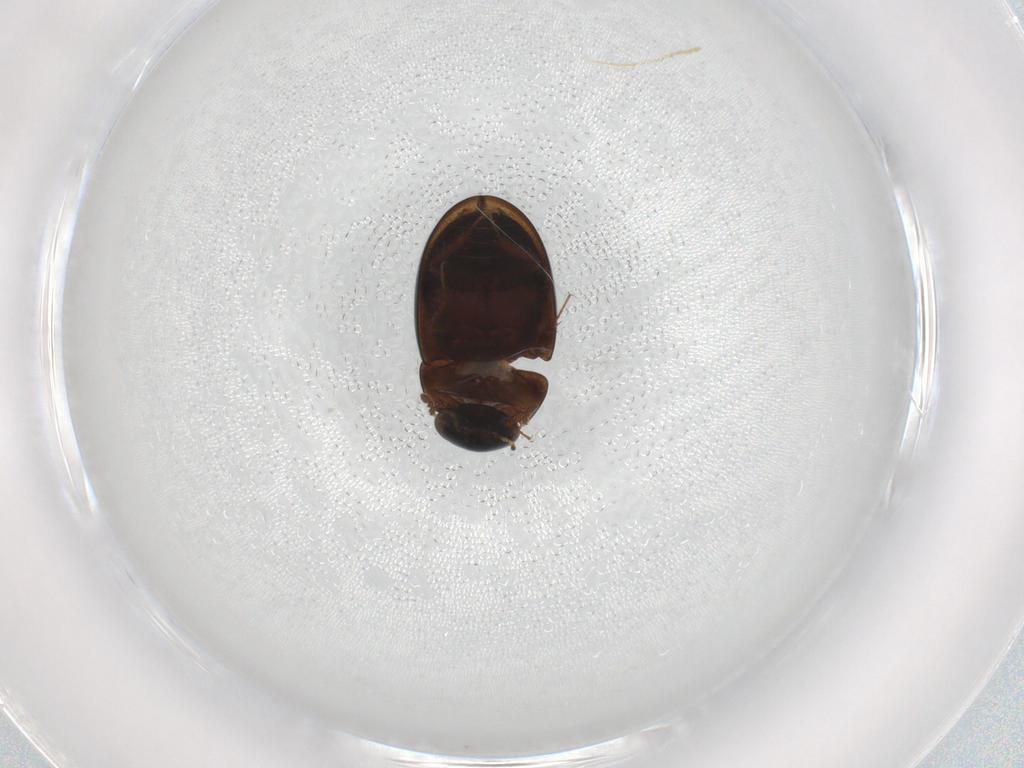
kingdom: Animalia
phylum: Arthropoda
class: Insecta
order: Coleoptera
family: Hydrophilidae
